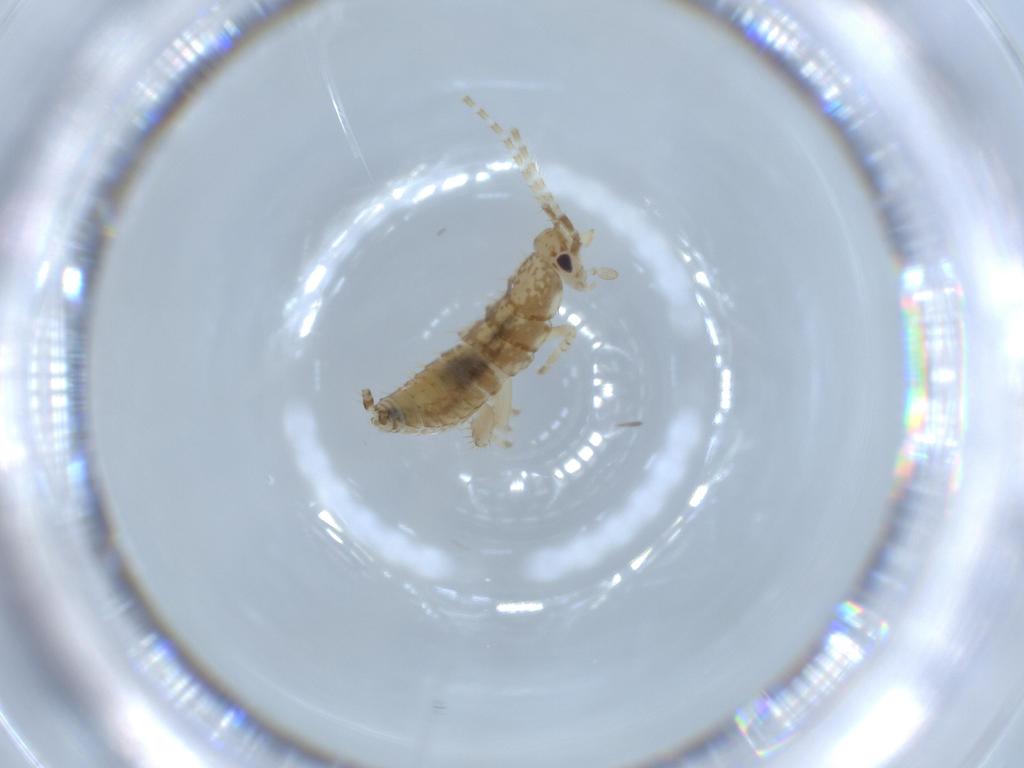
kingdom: Animalia
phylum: Arthropoda
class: Insecta
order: Blattodea
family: Ectobiidae
